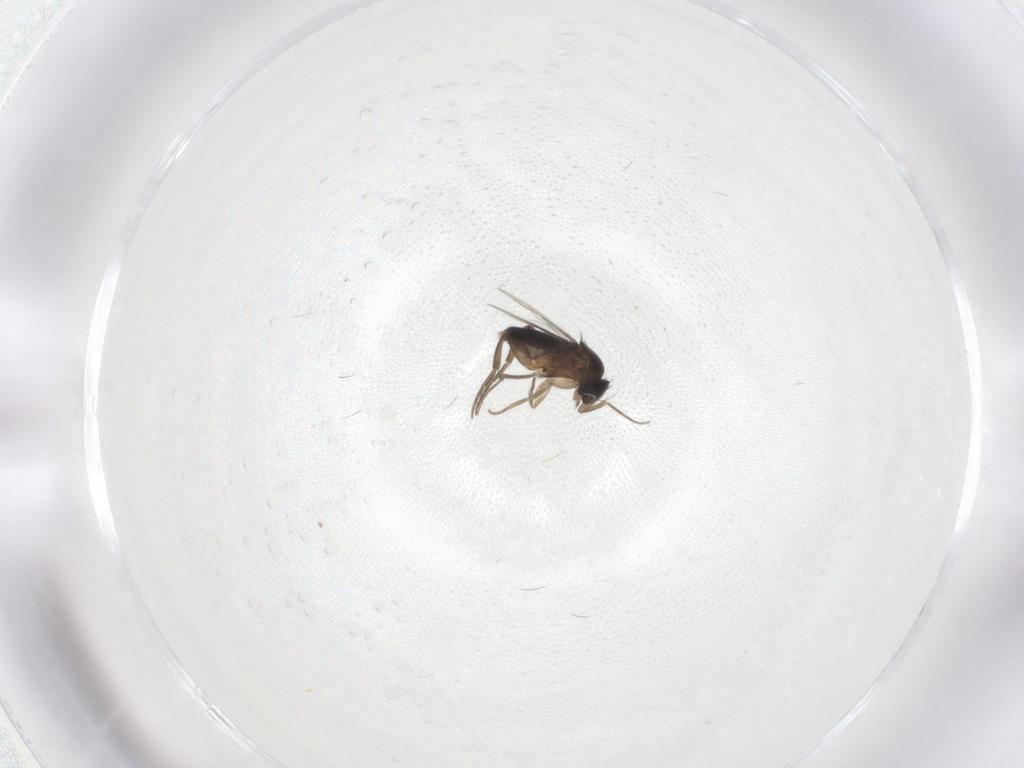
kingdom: Animalia
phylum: Arthropoda
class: Insecta
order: Diptera
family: Phoridae
